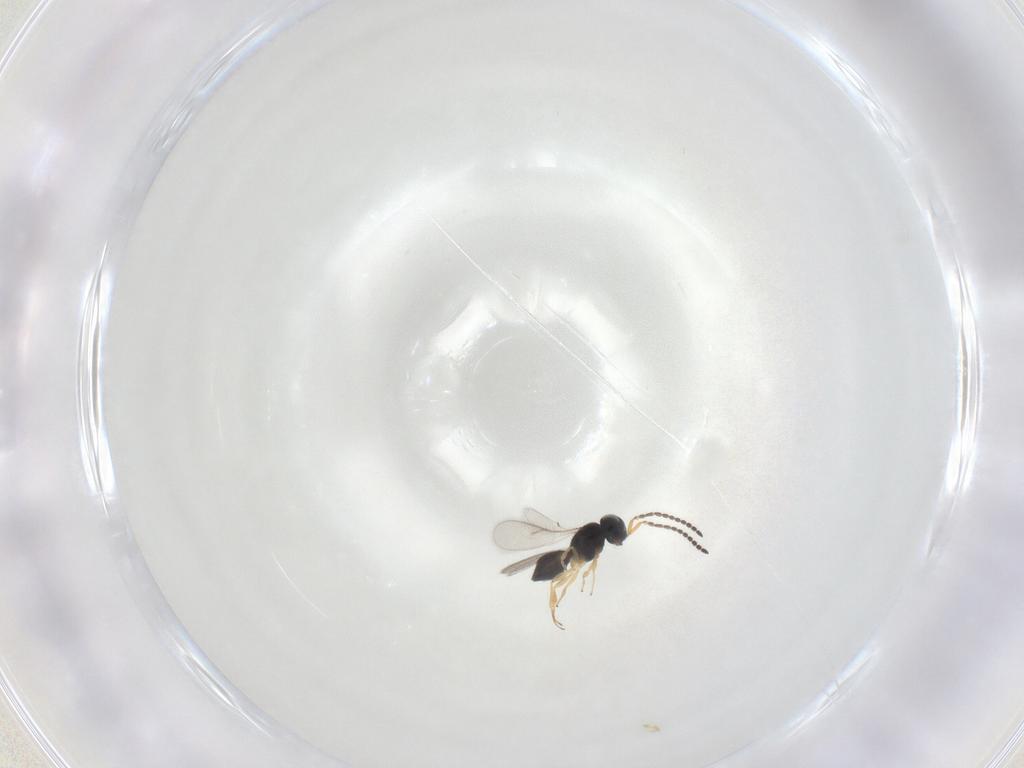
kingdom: Animalia
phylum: Arthropoda
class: Insecta
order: Hymenoptera
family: Scelionidae
